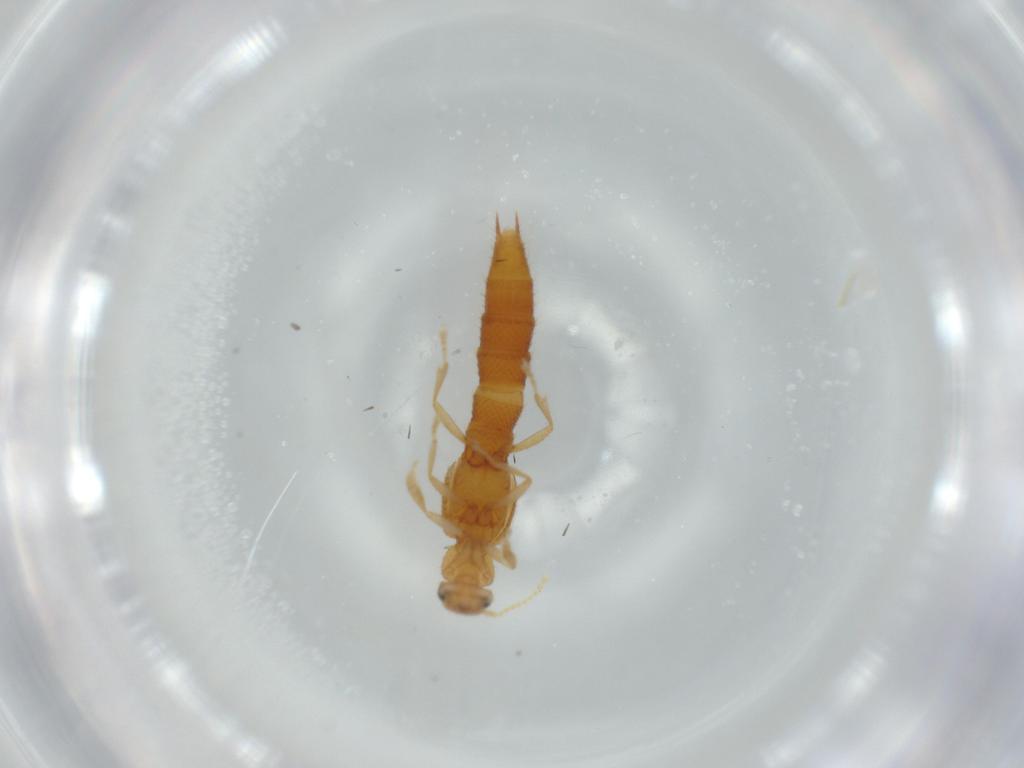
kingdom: Animalia
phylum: Arthropoda
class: Insecta
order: Coleoptera
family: Staphylinidae
